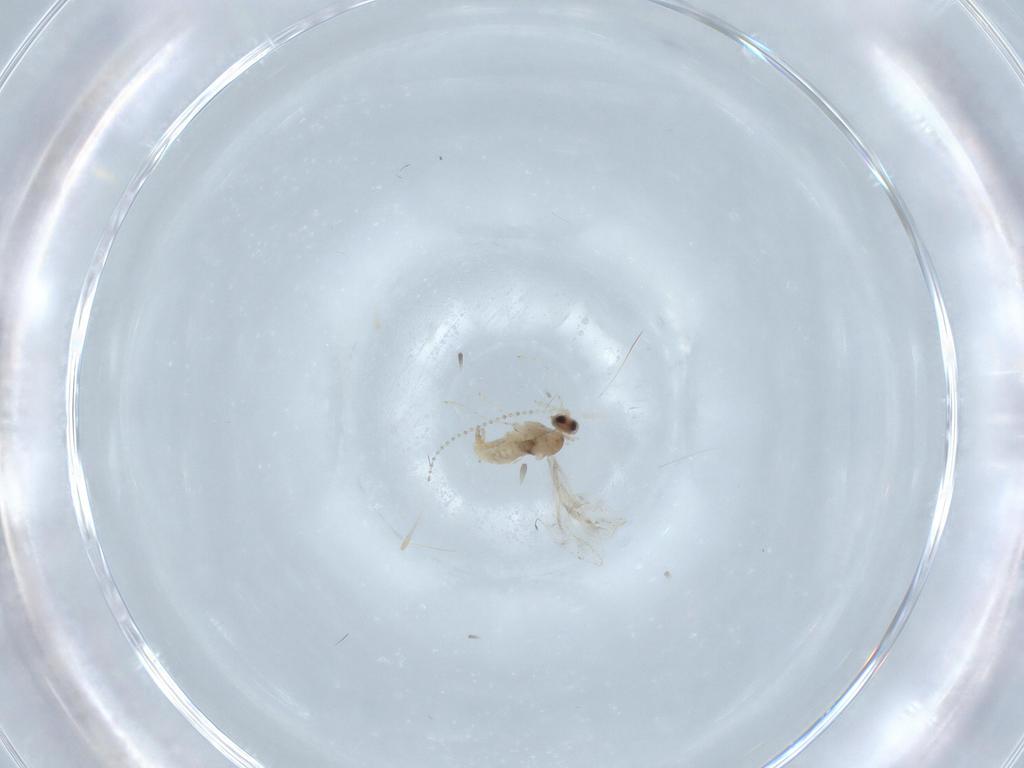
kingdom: Animalia
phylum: Arthropoda
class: Insecta
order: Diptera
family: Cecidomyiidae
